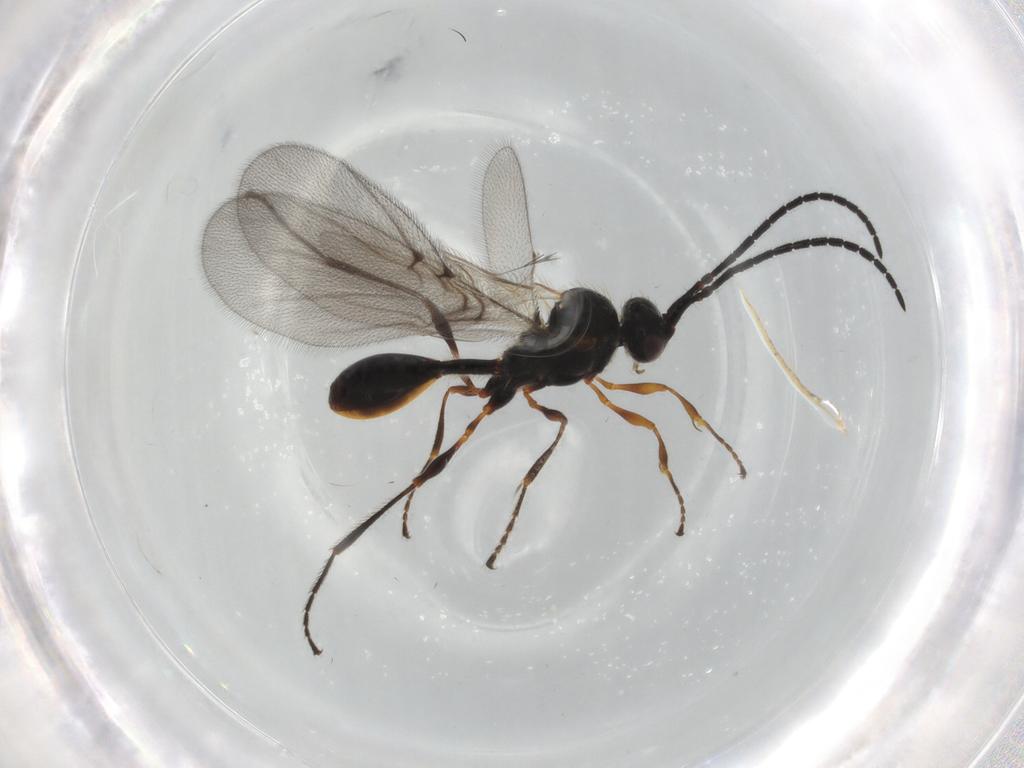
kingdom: Animalia
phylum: Arthropoda
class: Insecta
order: Hymenoptera
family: Diapriidae
